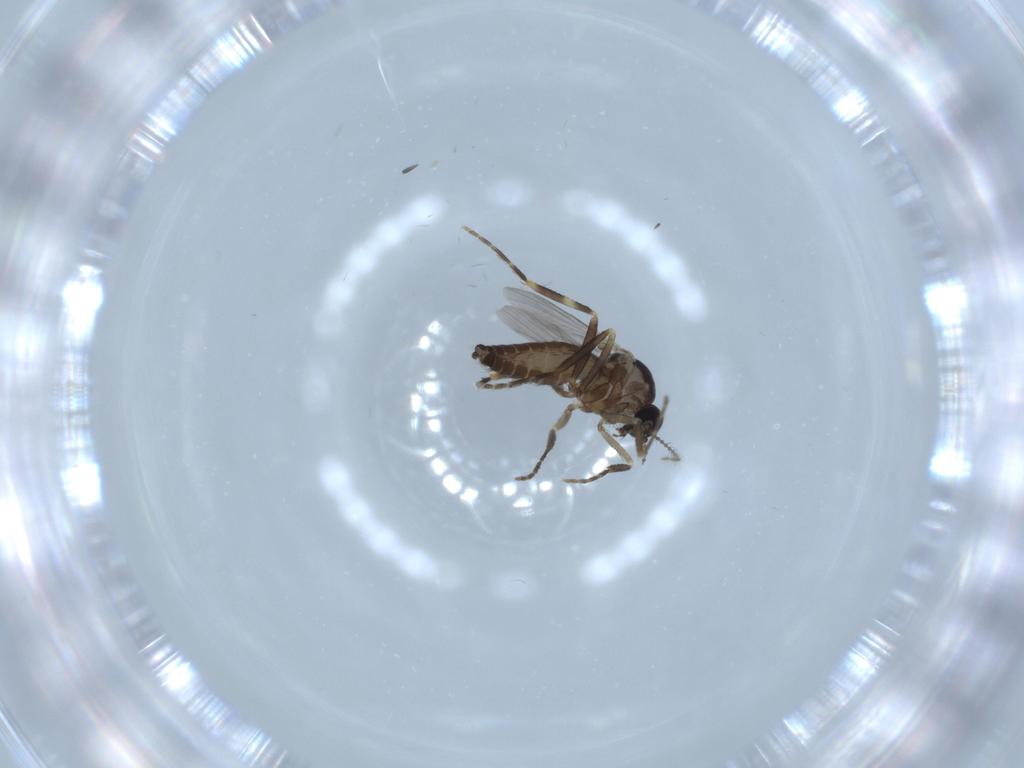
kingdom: Animalia
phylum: Arthropoda
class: Insecta
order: Diptera
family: Ceratopogonidae
